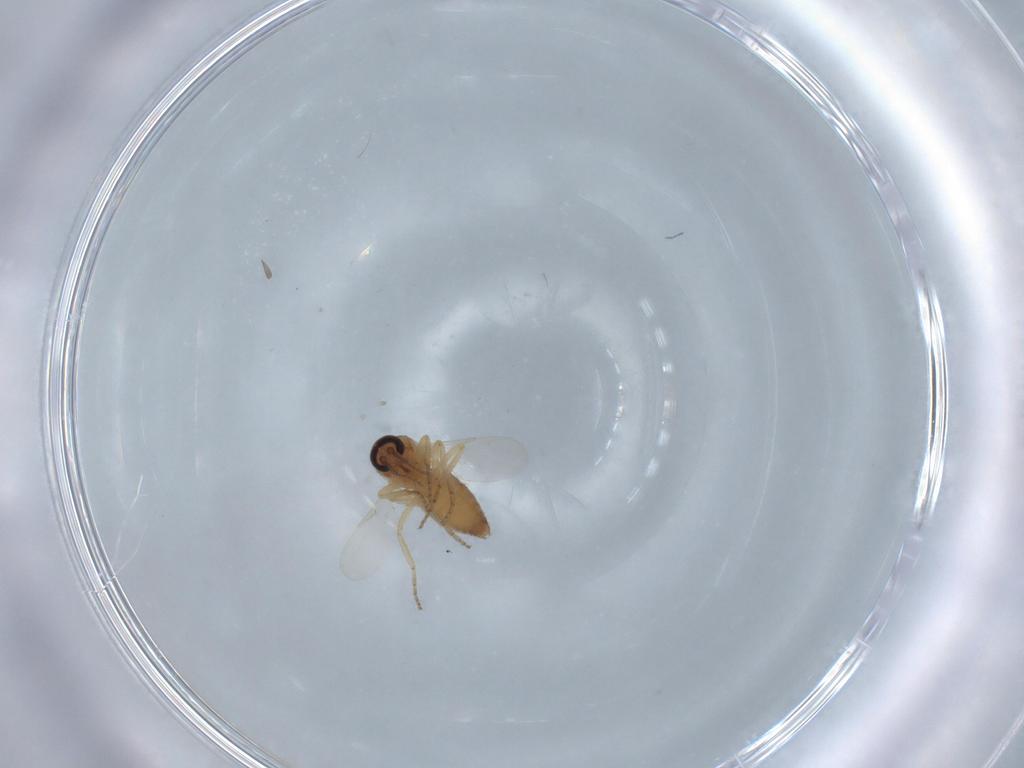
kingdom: Animalia
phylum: Arthropoda
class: Insecta
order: Diptera
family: Ceratopogonidae
